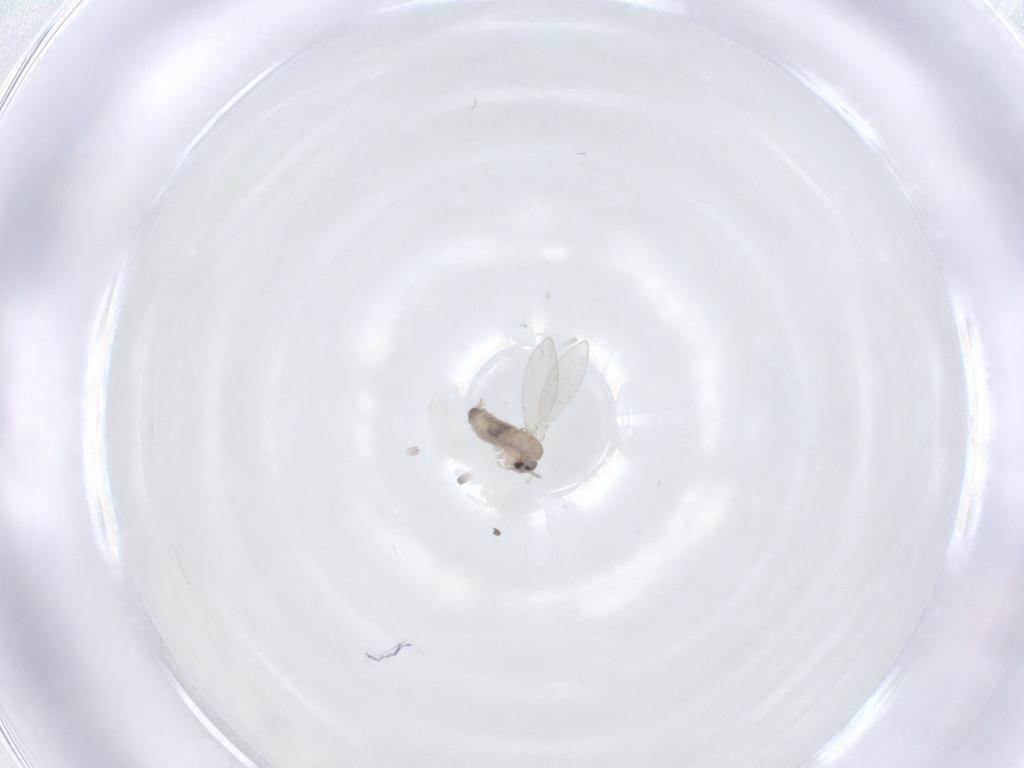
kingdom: Animalia
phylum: Arthropoda
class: Insecta
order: Diptera
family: Psychodidae
